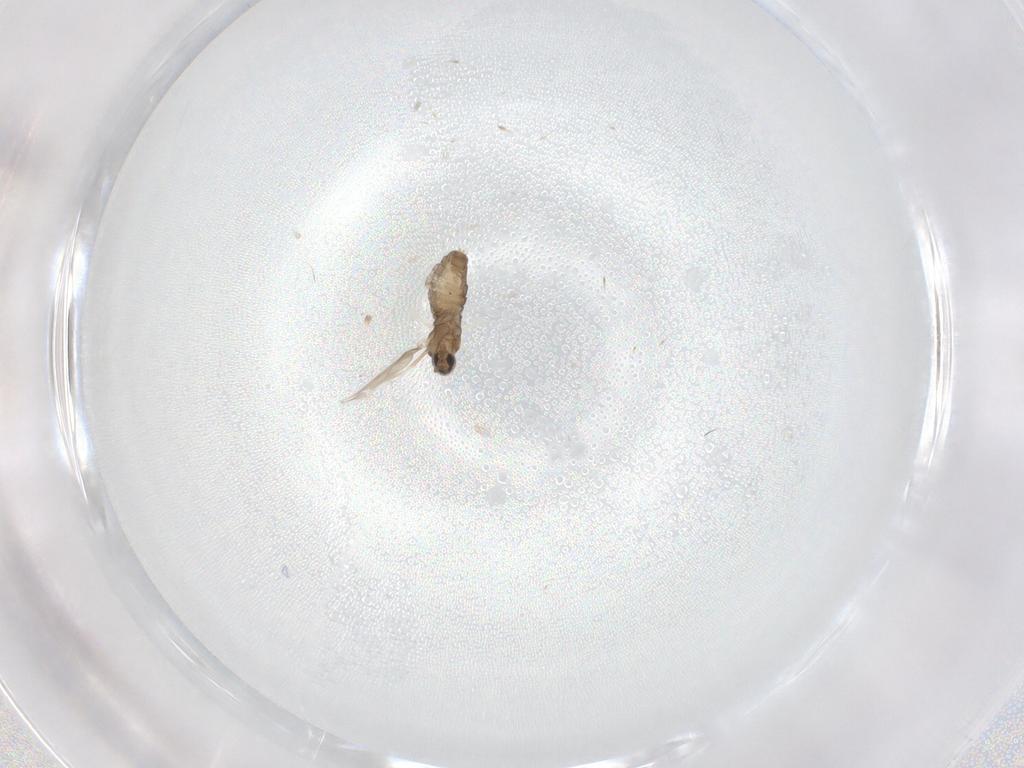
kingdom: Animalia
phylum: Arthropoda
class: Insecta
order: Diptera
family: Cecidomyiidae
